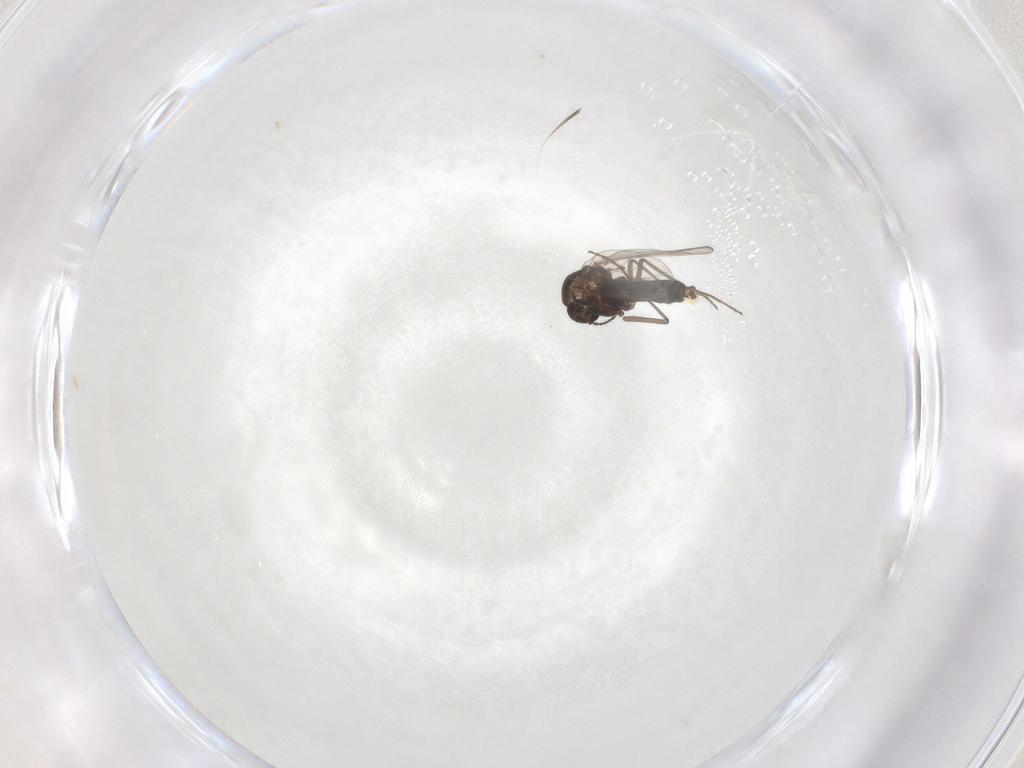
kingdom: Animalia
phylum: Arthropoda
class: Insecta
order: Diptera
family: Chironomidae
